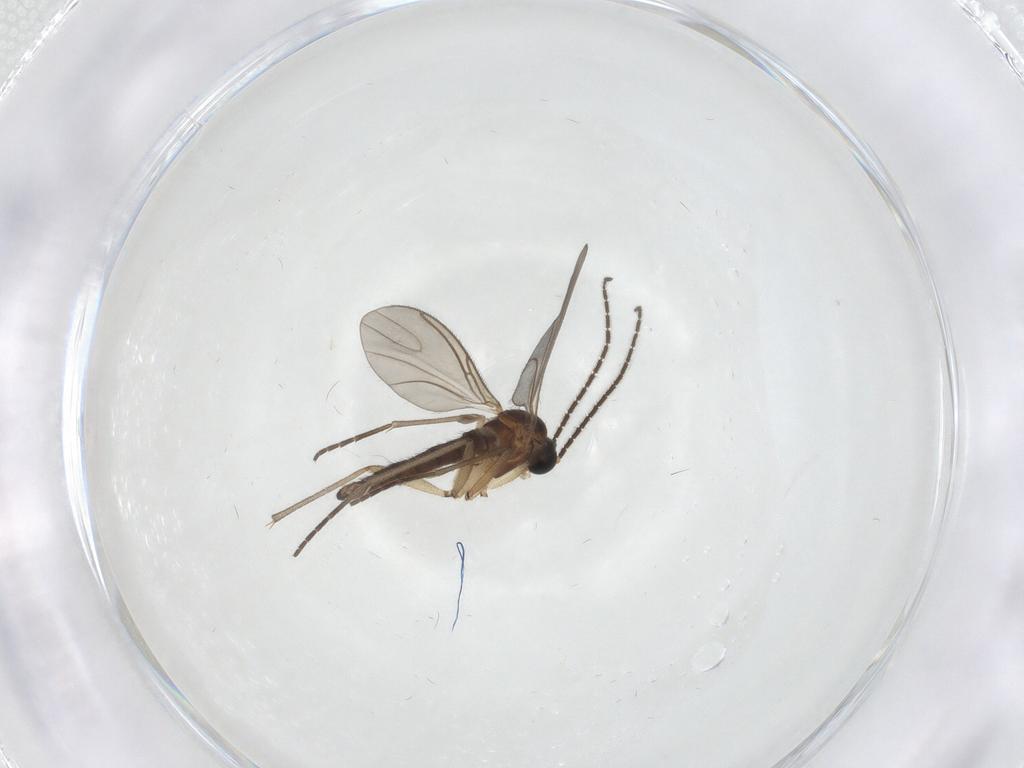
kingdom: Animalia
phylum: Arthropoda
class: Insecta
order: Diptera
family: Sciaridae
